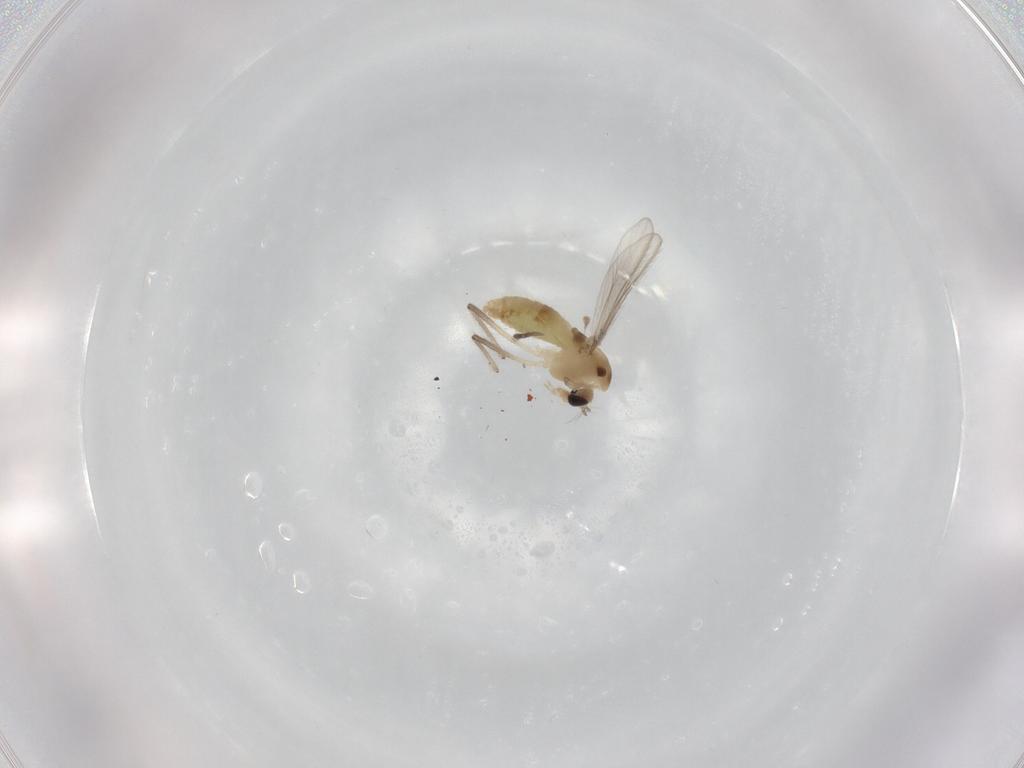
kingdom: Animalia
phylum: Arthropoda
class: Insecta
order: Diptera
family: Chironomidae
